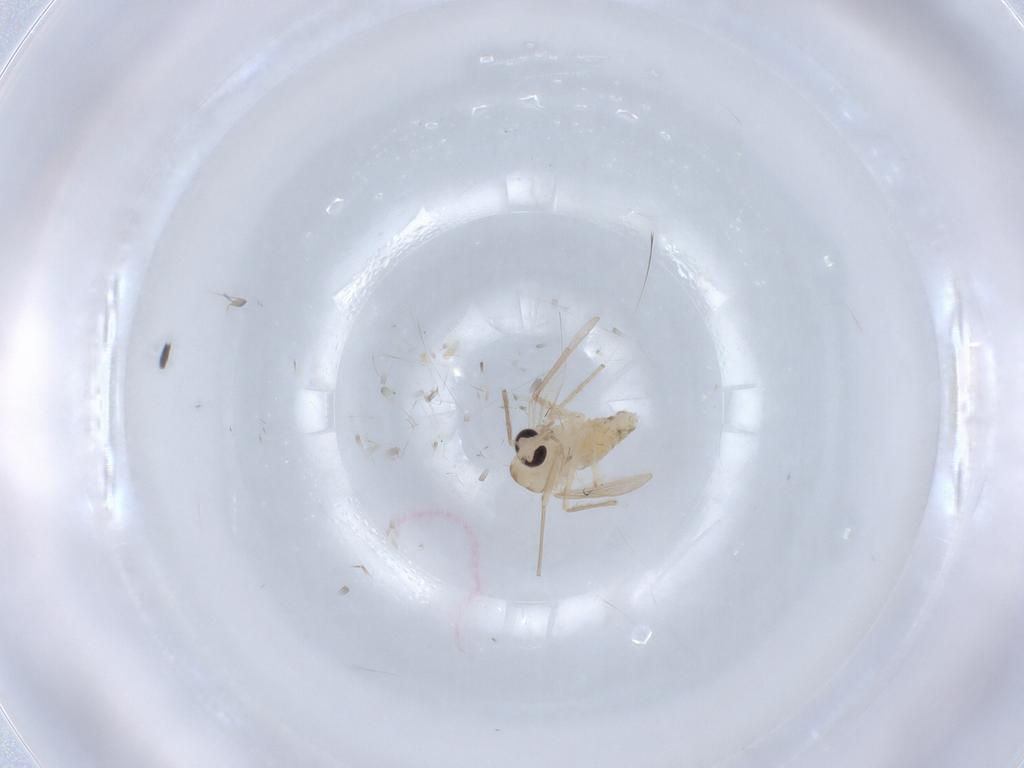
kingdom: Animalia
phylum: Arthropoda
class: Insecta
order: Diptera
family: Chironomidae
